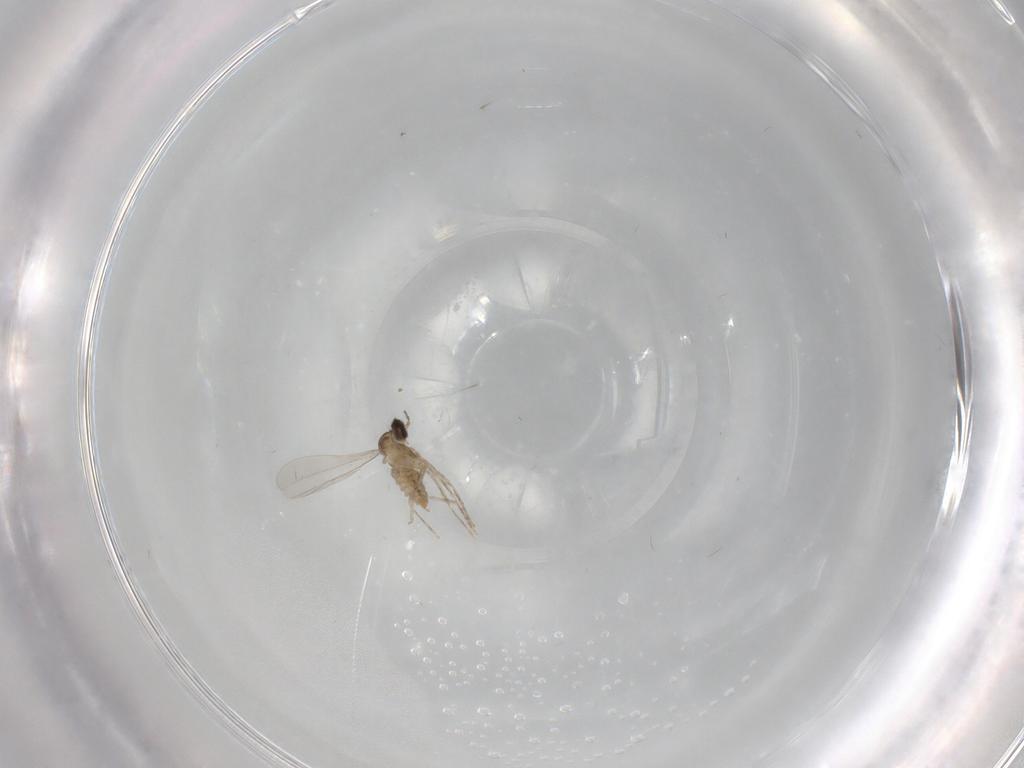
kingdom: Animalia
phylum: Arthropoda
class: Insecta
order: Diptera
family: Cecidomyiidae
